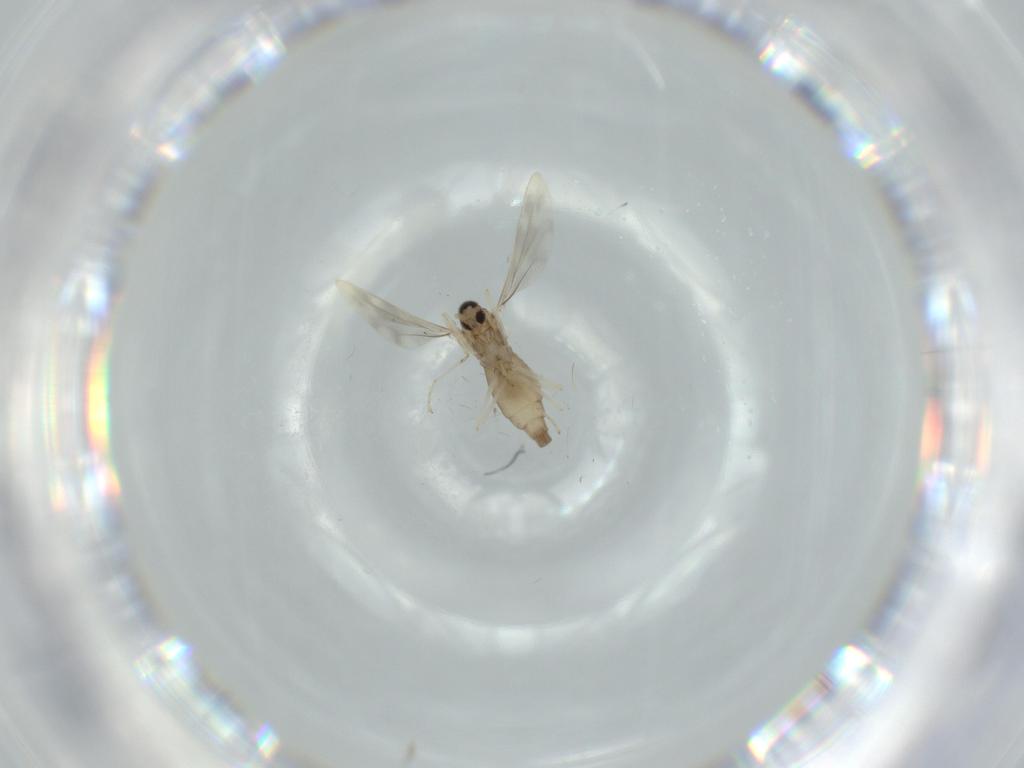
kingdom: Animalia
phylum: Arthropoda
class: Insecta
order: Diptera
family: Cecidomyiidae
